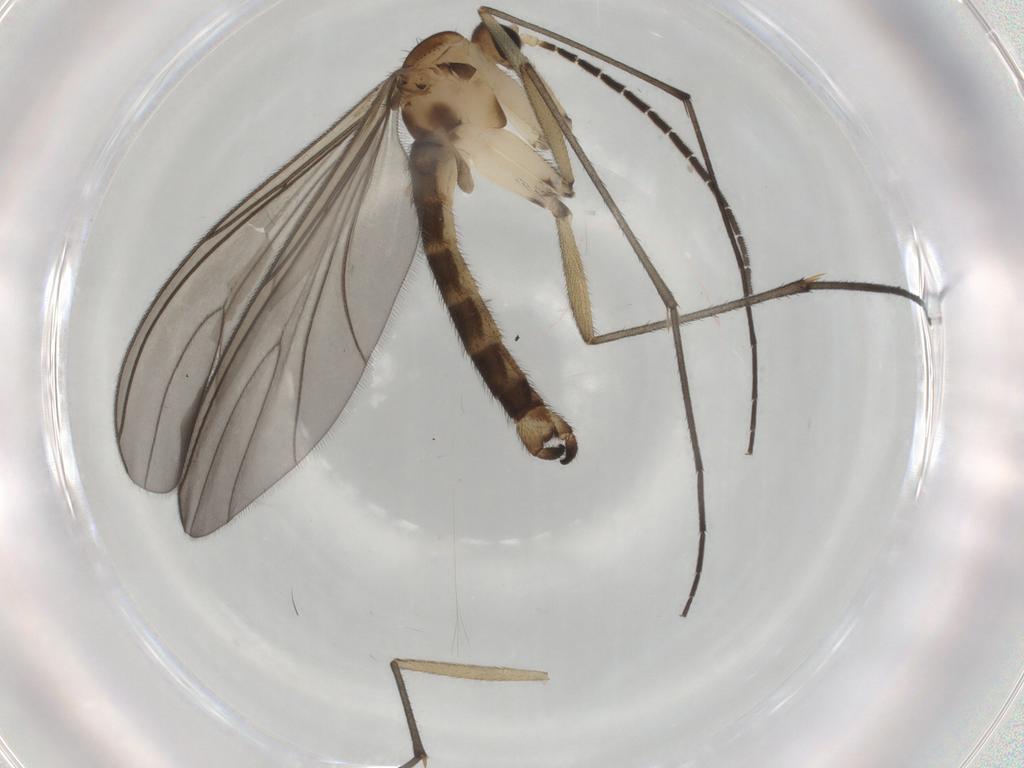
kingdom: Animalia
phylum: Arthropoda
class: Insecta
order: Diptera
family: Sciaridae
